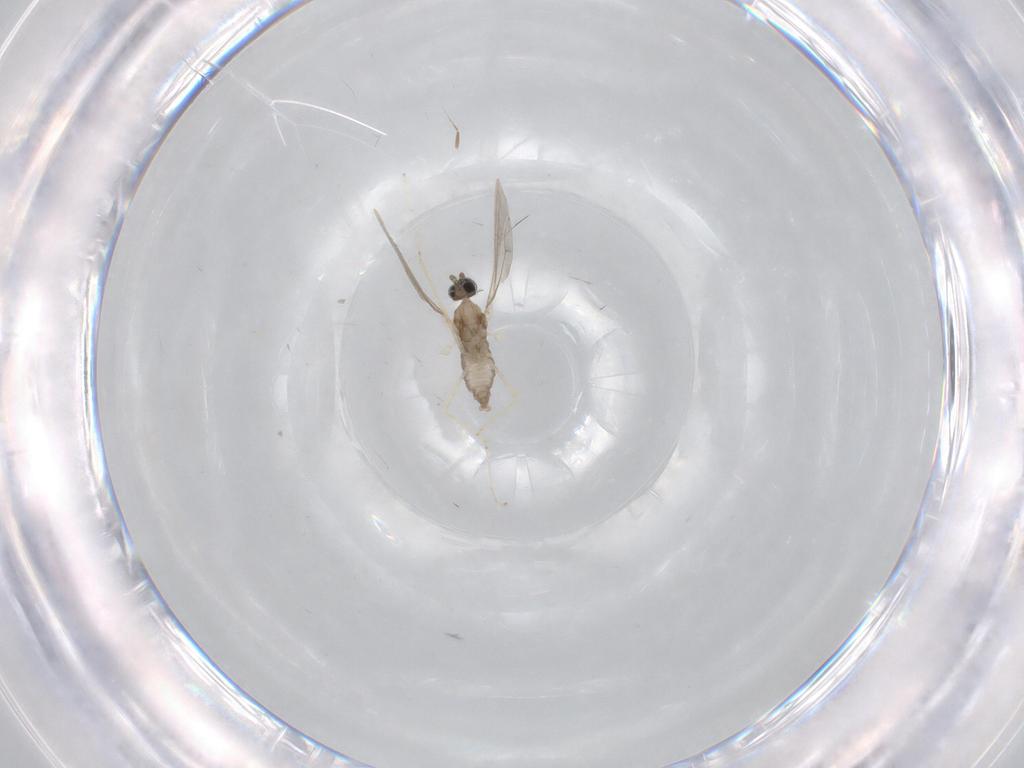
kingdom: Animalia
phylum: Arthropoda
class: Insecta
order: Diptera
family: Cecidomyiidae
